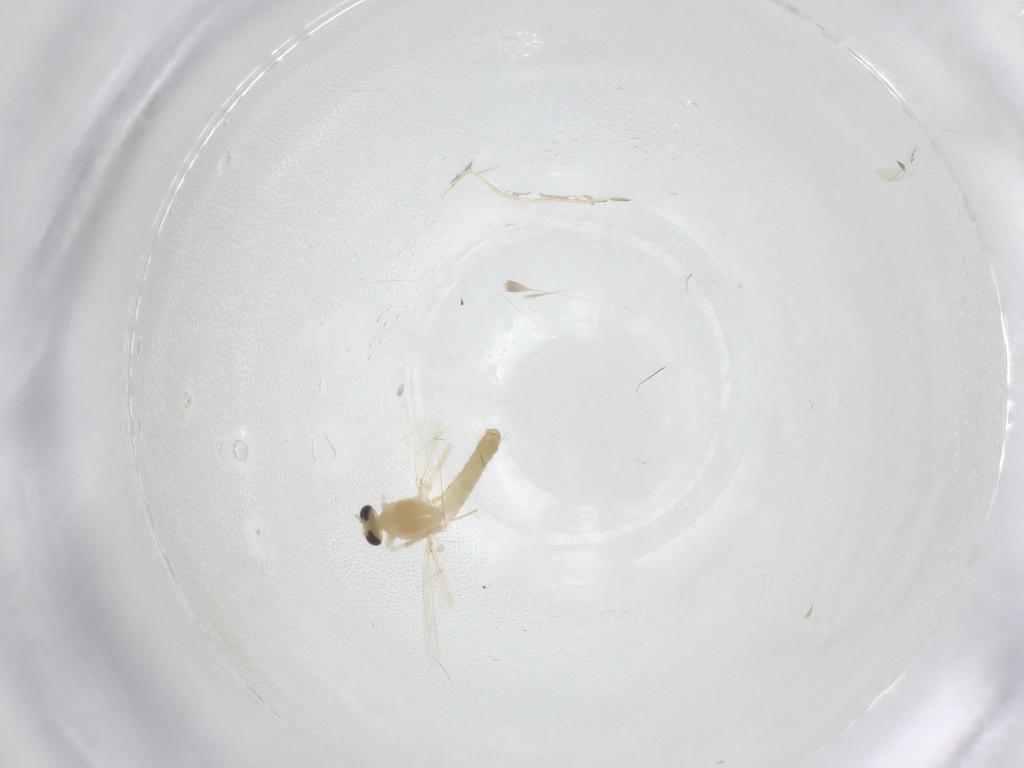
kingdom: Animalia
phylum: Arthropoda
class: Insecta
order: Diptera
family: Chironomidae
